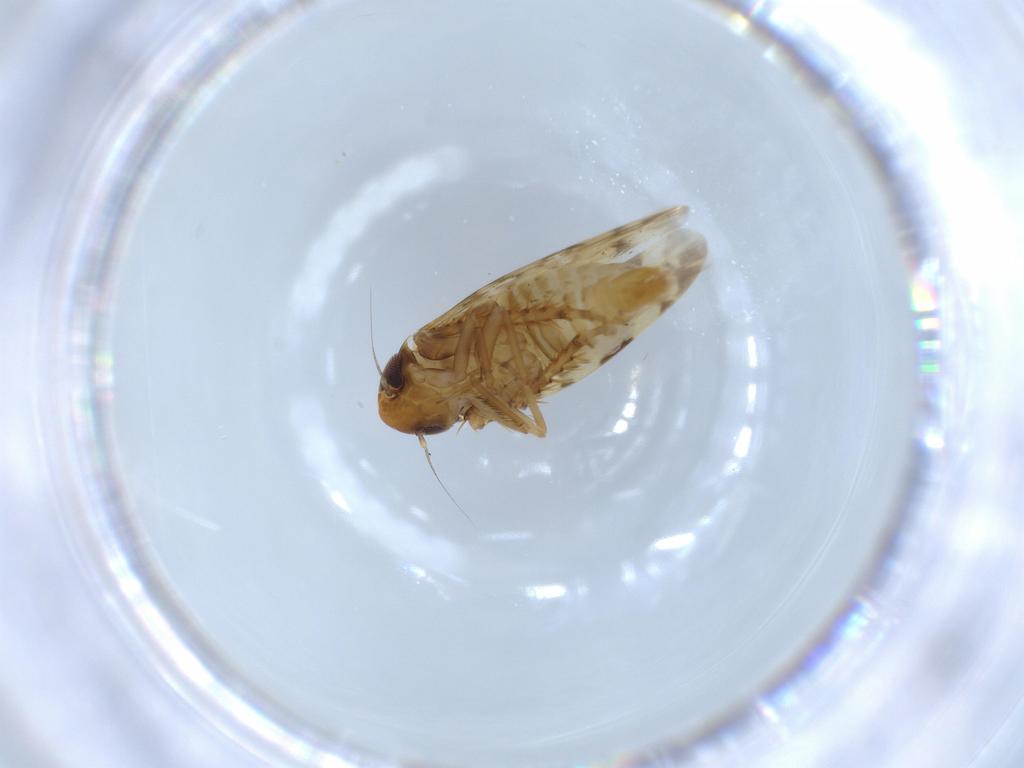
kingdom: Animalia
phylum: Arthropoda
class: Insecta
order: Hemiptera
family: Cicadellidae
